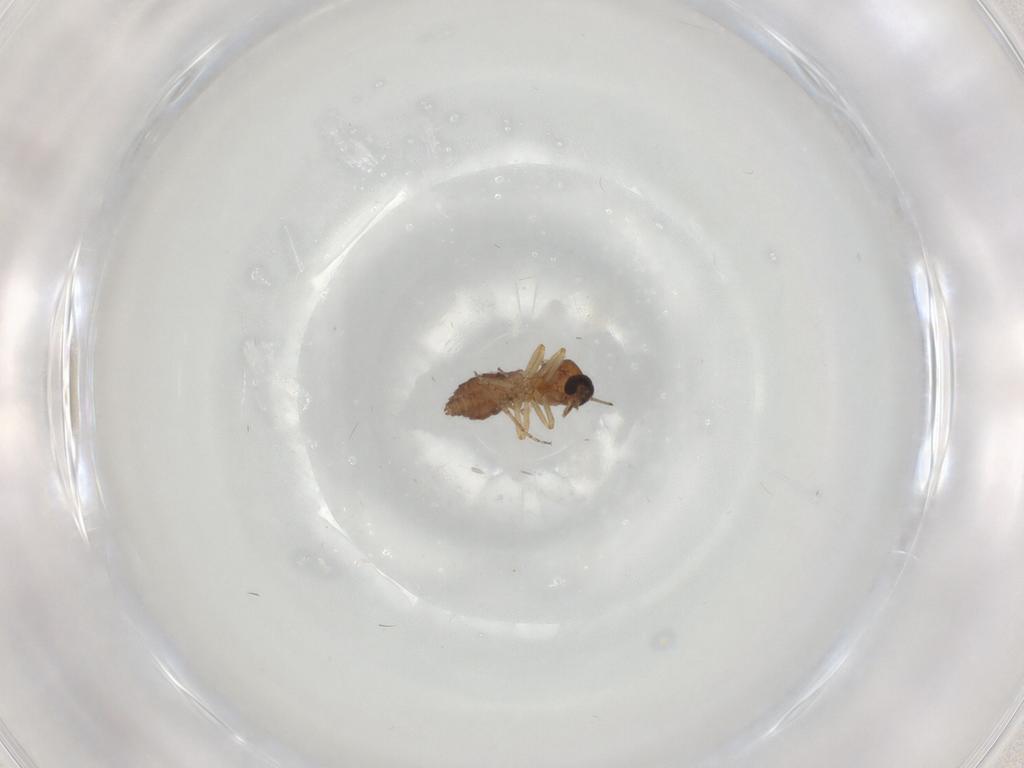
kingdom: Animalia
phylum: Arthropoda
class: Insecta
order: Diptera
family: Ceratopogonidae
